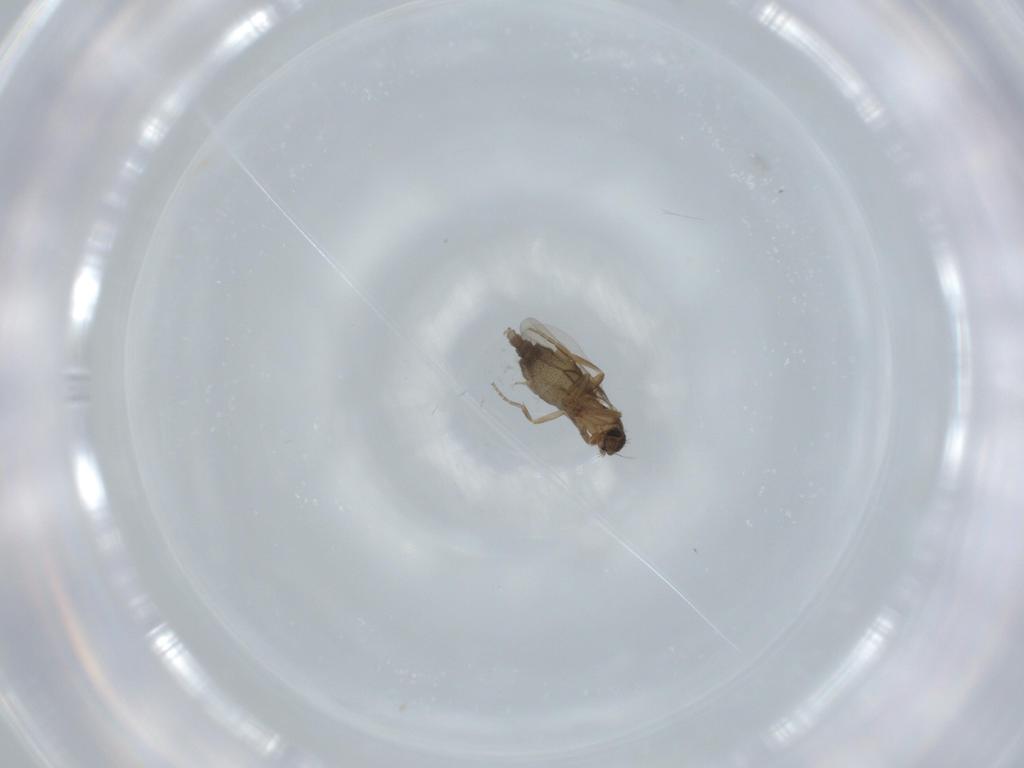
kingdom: Animalia
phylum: Arthropoda
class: Insecta
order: Diptera
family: Phoridae
